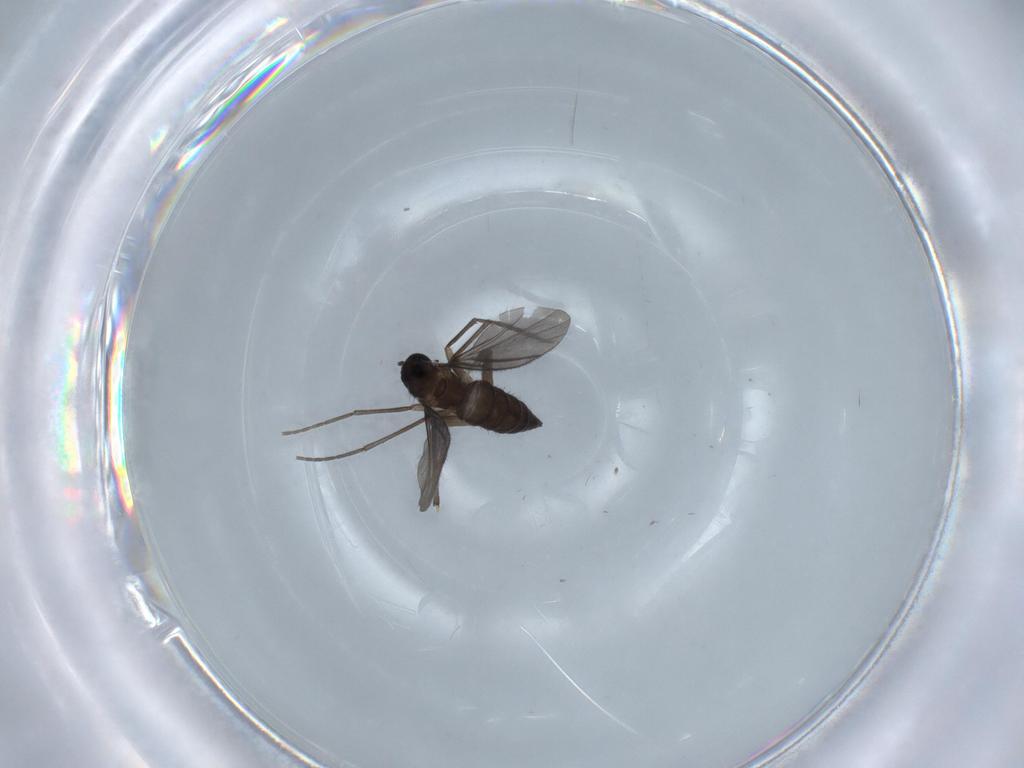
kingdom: Animalia
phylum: Arthropoda
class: Insecta
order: Diptera
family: Sciaridae
